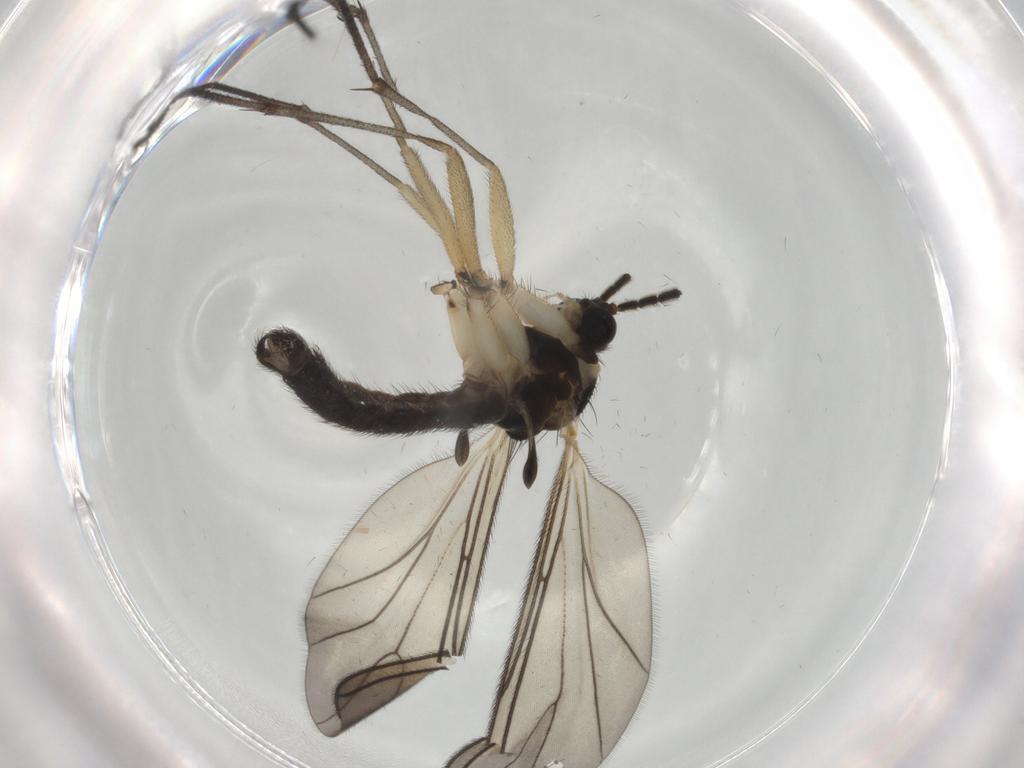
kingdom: Animalia
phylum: Arthropoda
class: Insecta
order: Diptera
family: Sciaridae
